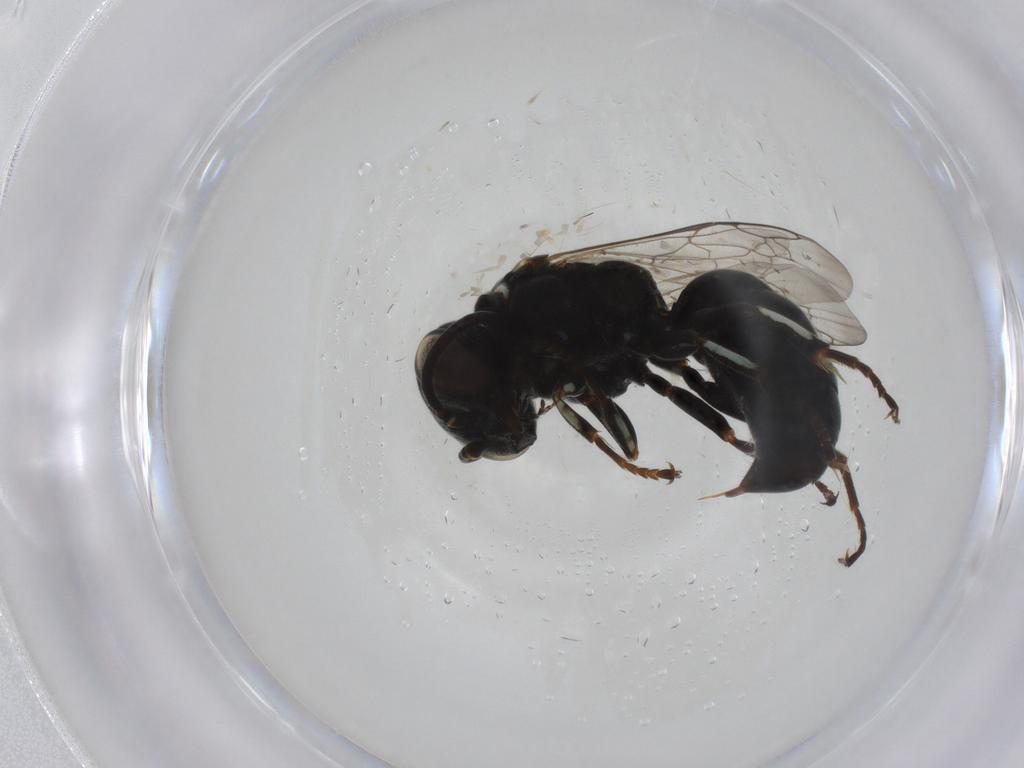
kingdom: Animalia
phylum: Arthropoda
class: Insecta
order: Hymenoptera
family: Crabronidae
